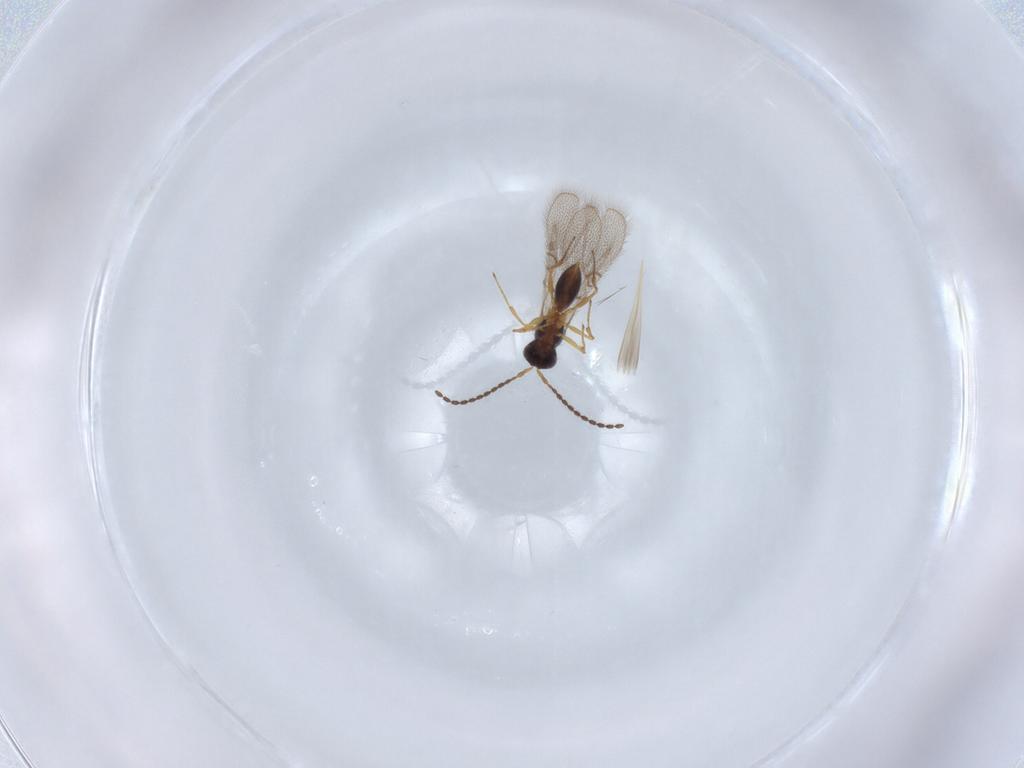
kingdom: Animalia
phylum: Arthropoda
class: Insecta
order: Hymenoptera
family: Figitidae
